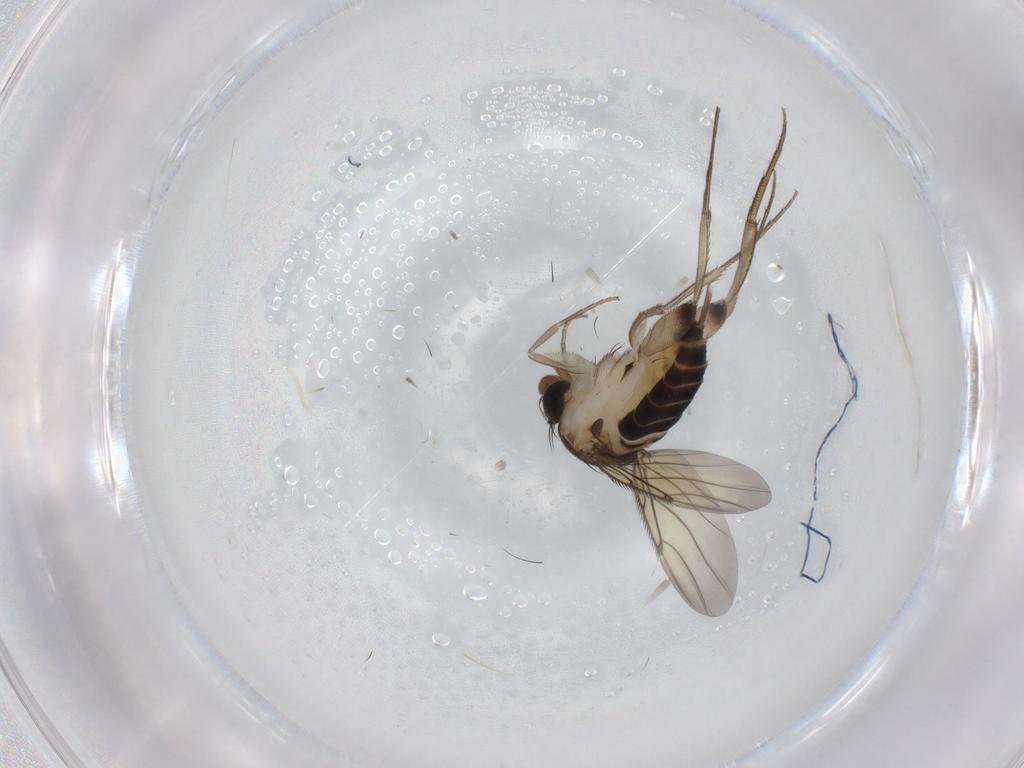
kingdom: Animalia
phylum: Arthropoda
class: Insecta
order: Diptera
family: Phoridae
